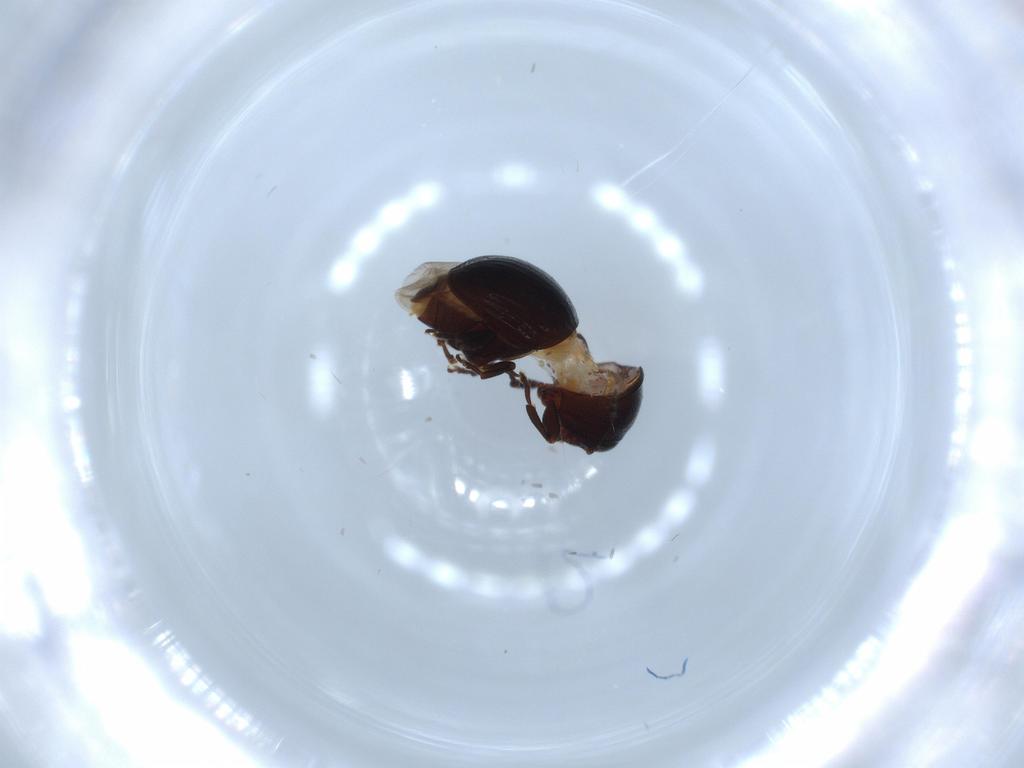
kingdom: Animalia
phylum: Arthropoda
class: Insecta
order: Coleoptera
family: Anthribidae
